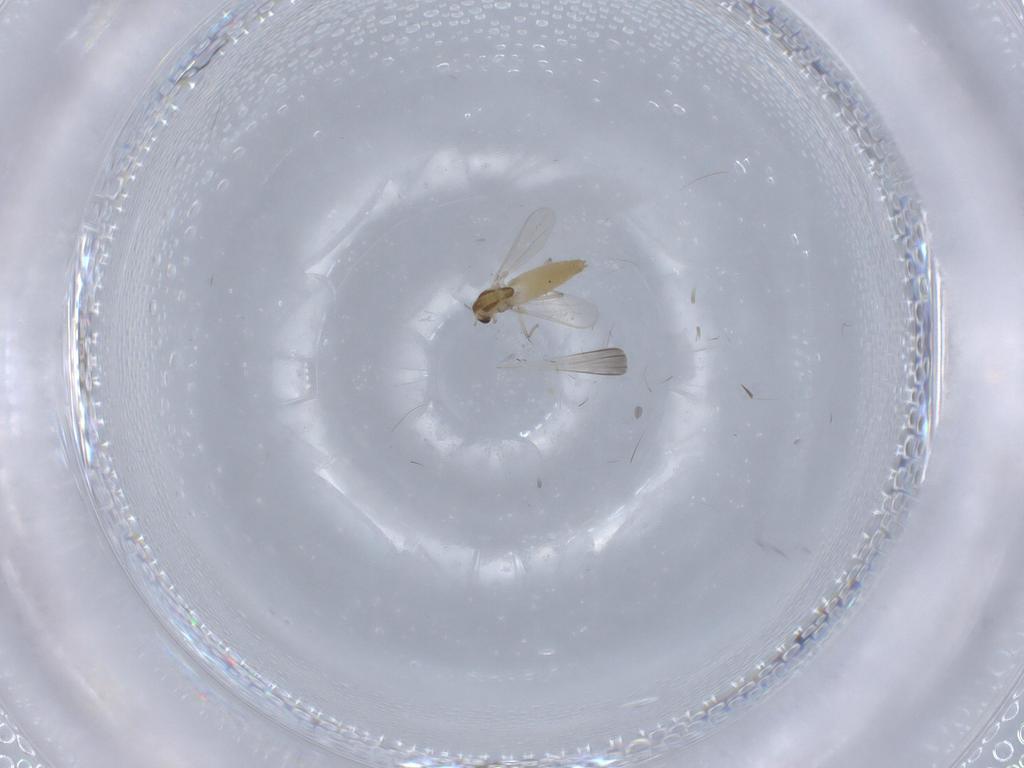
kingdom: Animalia
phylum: Arthropoda
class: Insecta
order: Diptera
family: Chironomidae
